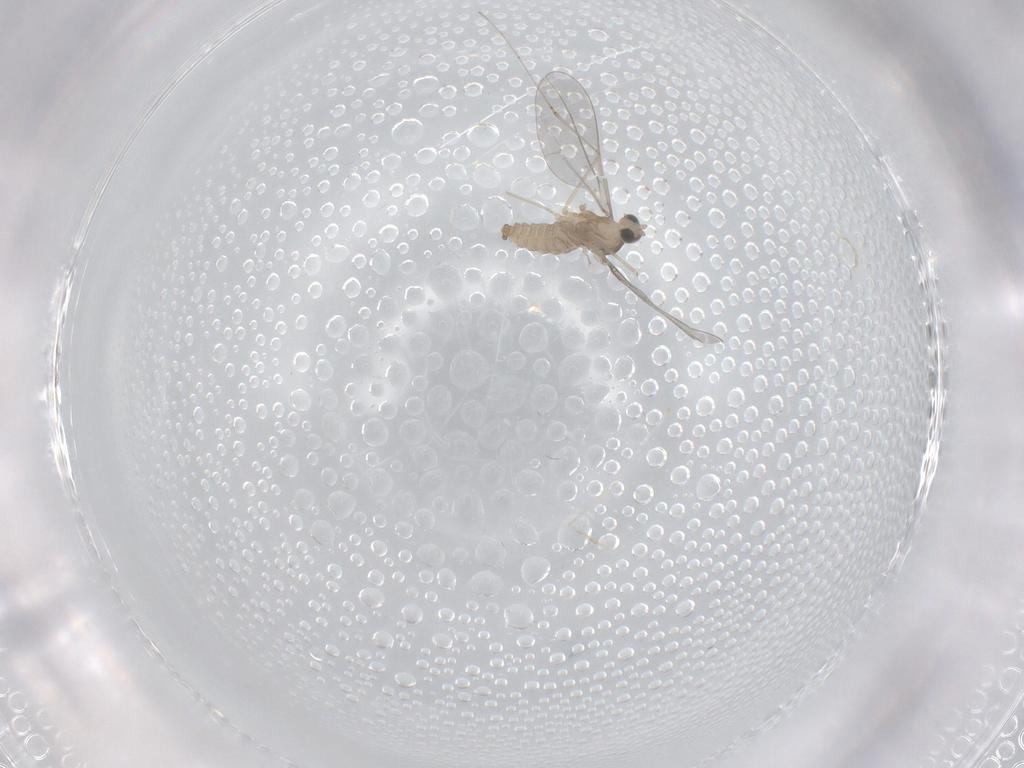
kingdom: Animalia
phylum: Arthropoda
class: Insecta
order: Diptera
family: Cecidomyiidae
